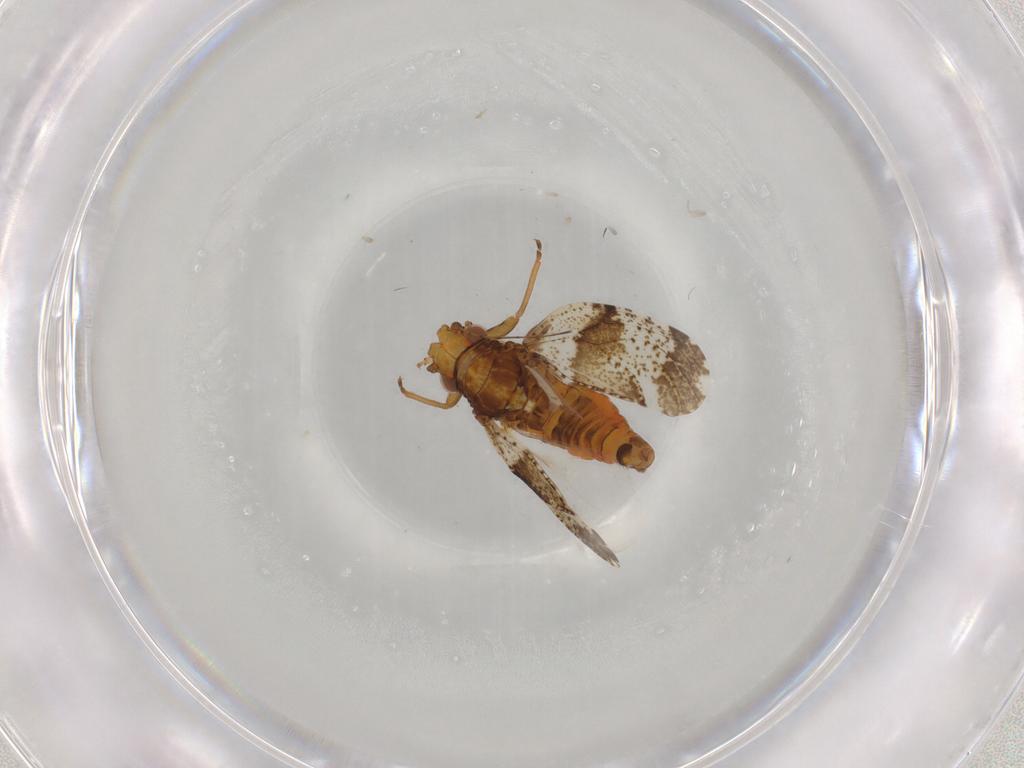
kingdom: Animalia
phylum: Arthropoda
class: Insecta
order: Hemiptera
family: Psyllidae
